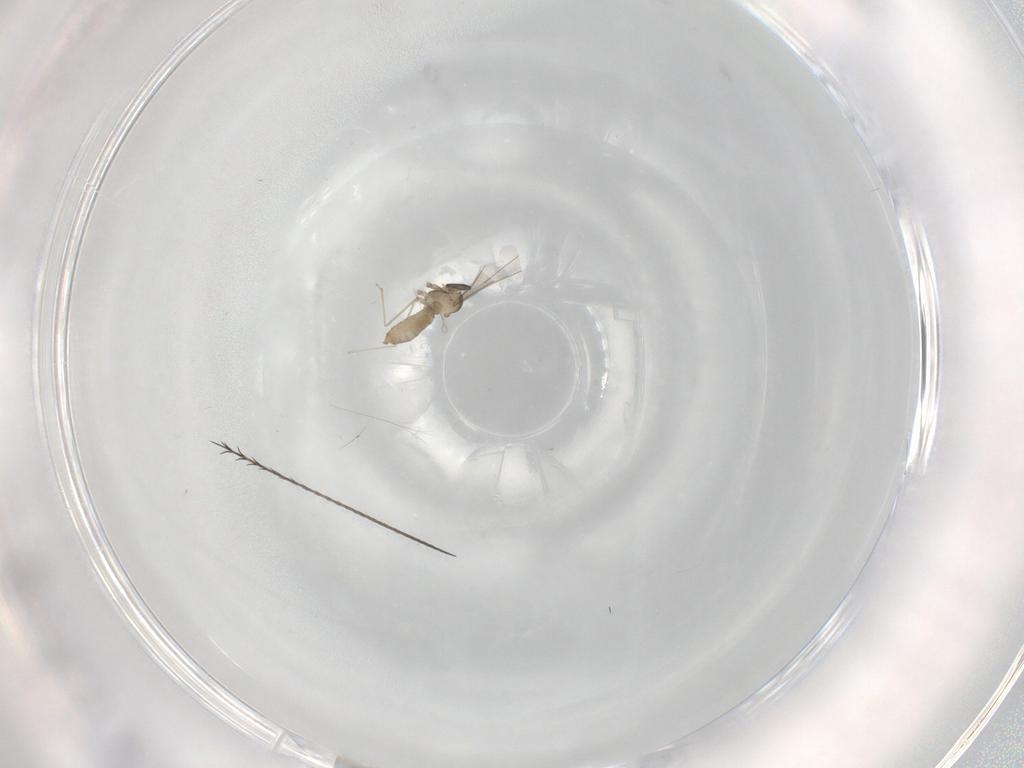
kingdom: Animalia
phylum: Arthropoda
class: Insecta
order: Diptera
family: Cecidomyiidae
